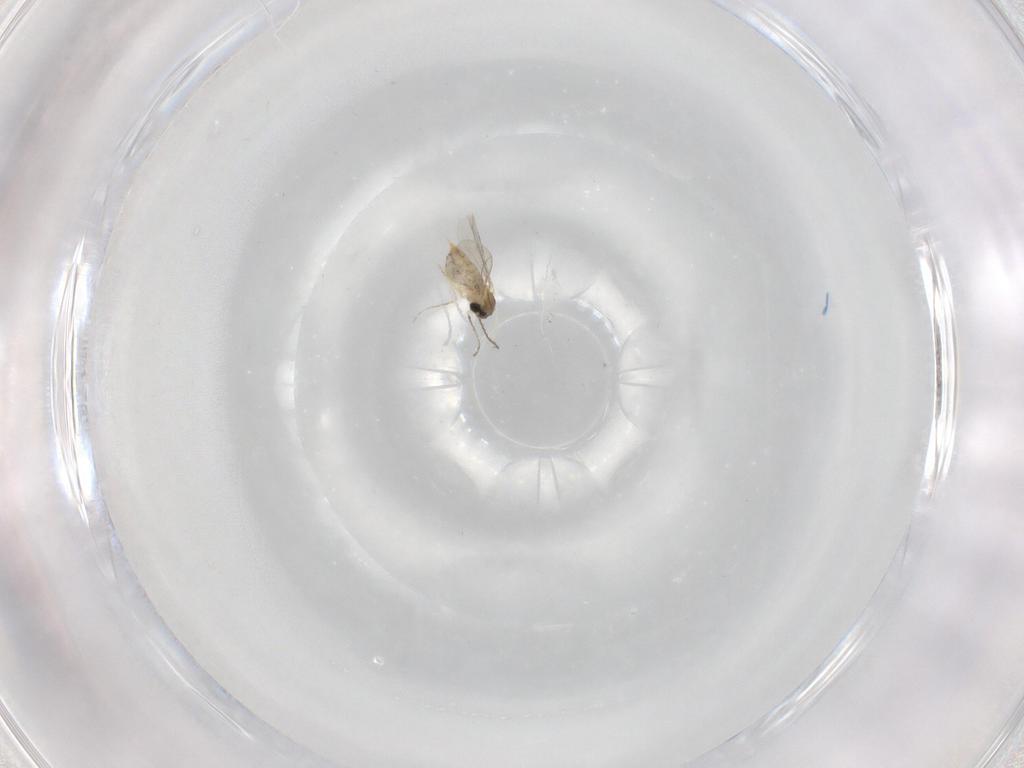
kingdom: Animalia
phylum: Arthropoda
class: Insecta
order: Diptera
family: Cecidomyiidae
